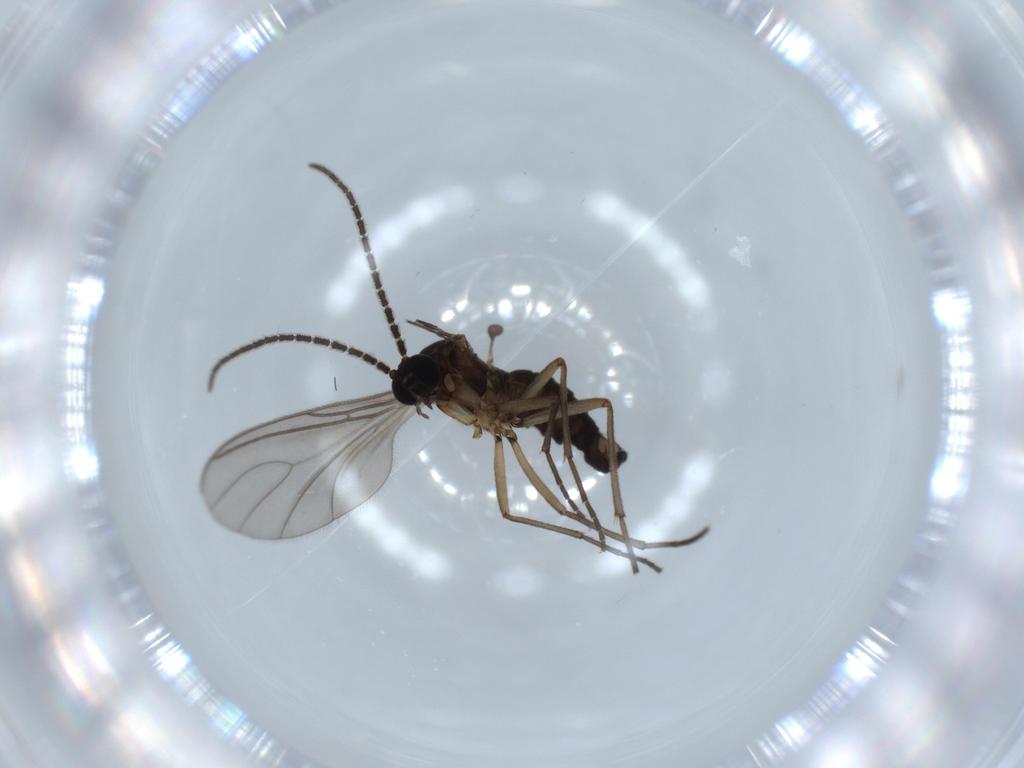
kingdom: Animalia
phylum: Arthropoda
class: Insecta
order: Diptera
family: Sciaridae
